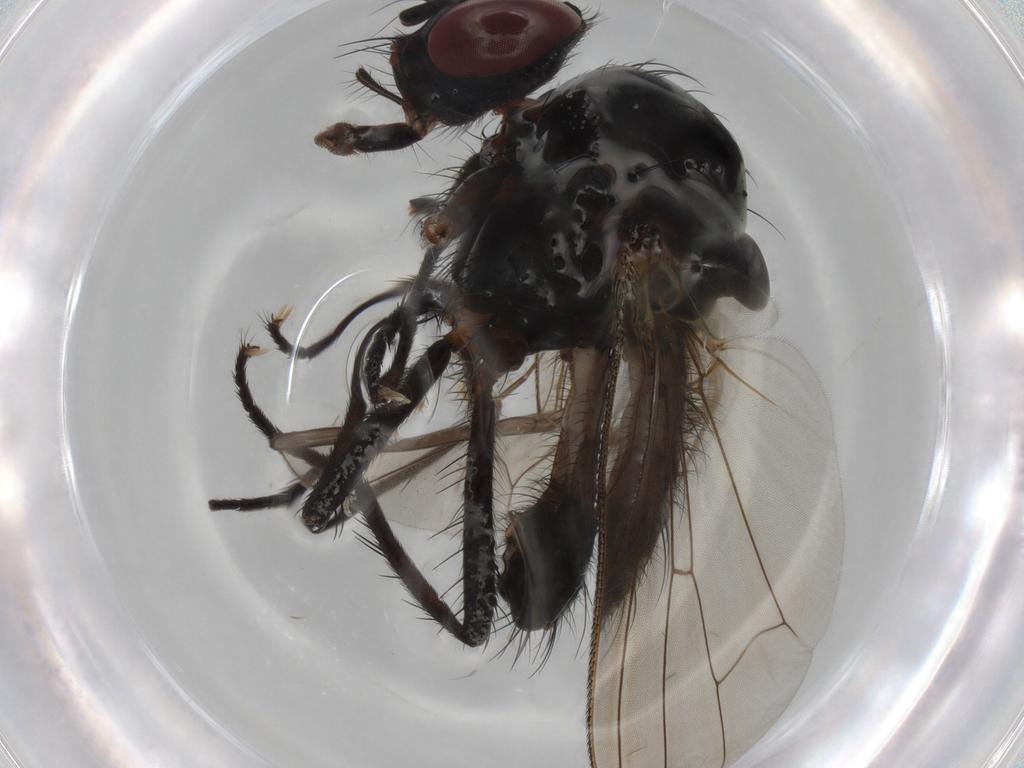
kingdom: Animalia
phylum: Arthropoda
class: Insecta
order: Diptera
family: Anthomyiidae
